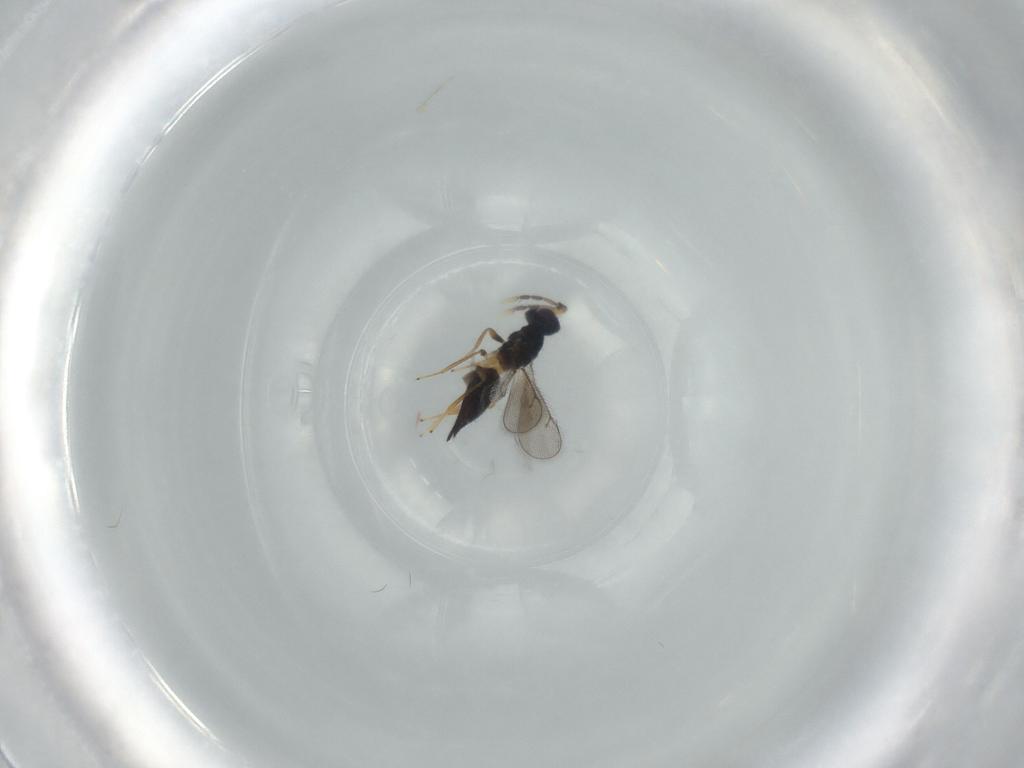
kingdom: Animalia
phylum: Arthropoda
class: Insecta
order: Hymenoptera
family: Eulophidae
